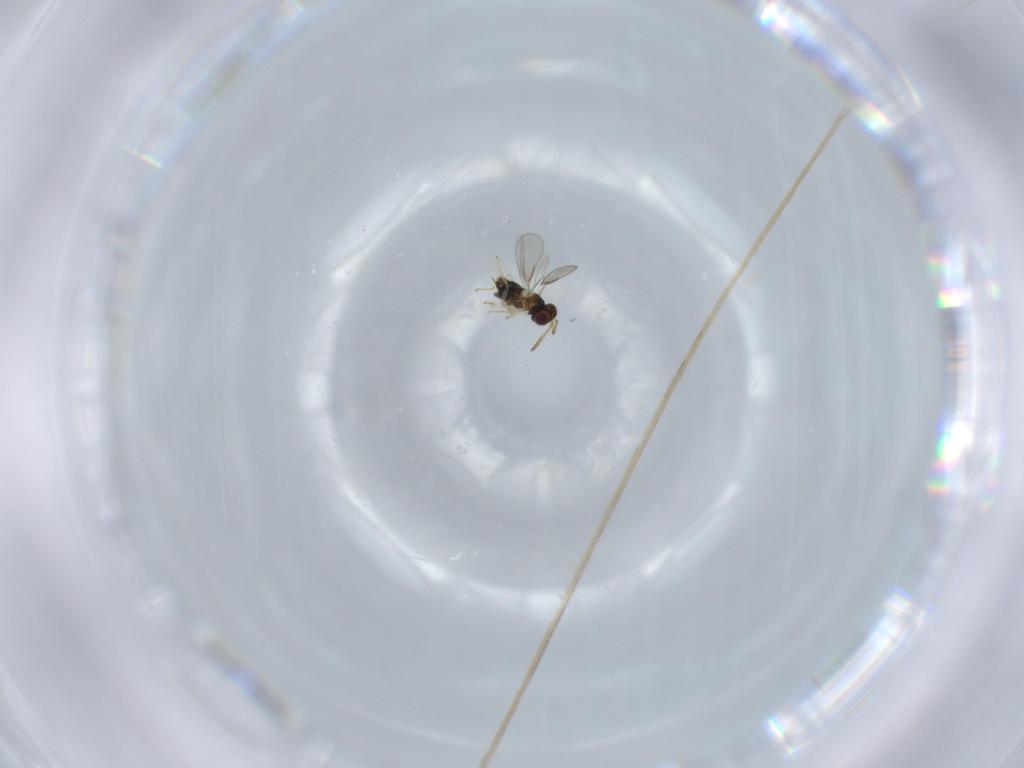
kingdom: Animalia
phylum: Arthropoda
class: Insecta
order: Hymenoptera
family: Aphelinidae
